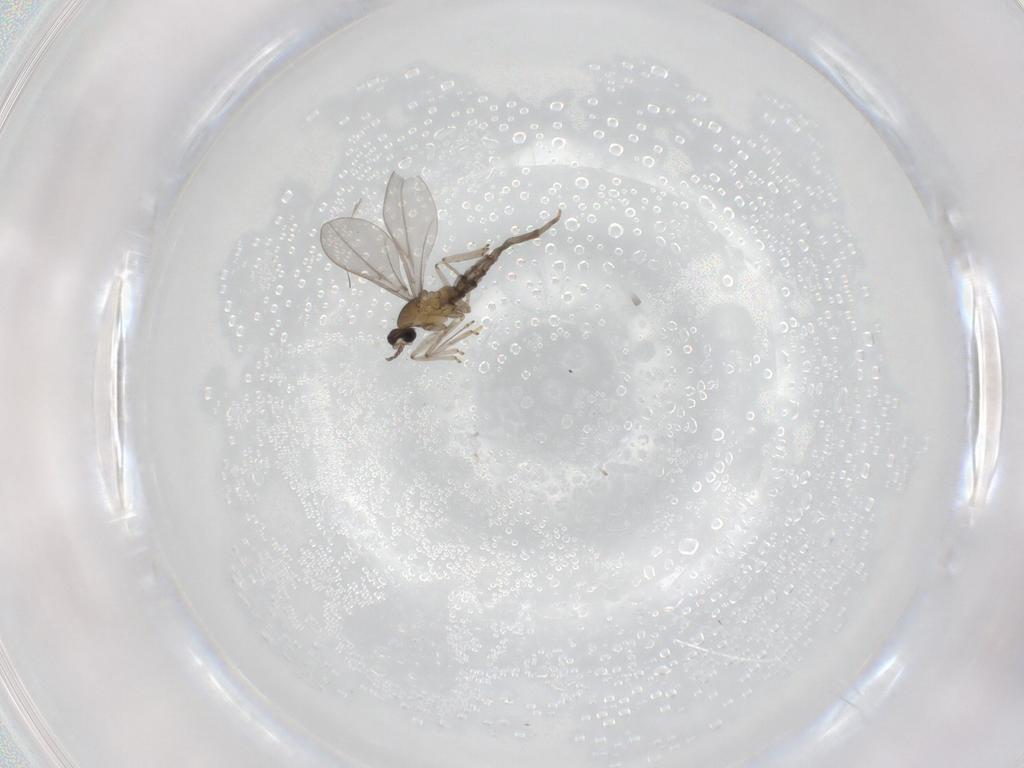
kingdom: Animalia
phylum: Arthropoda
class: Insecta
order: Diptera
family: Cecidomyiidae
